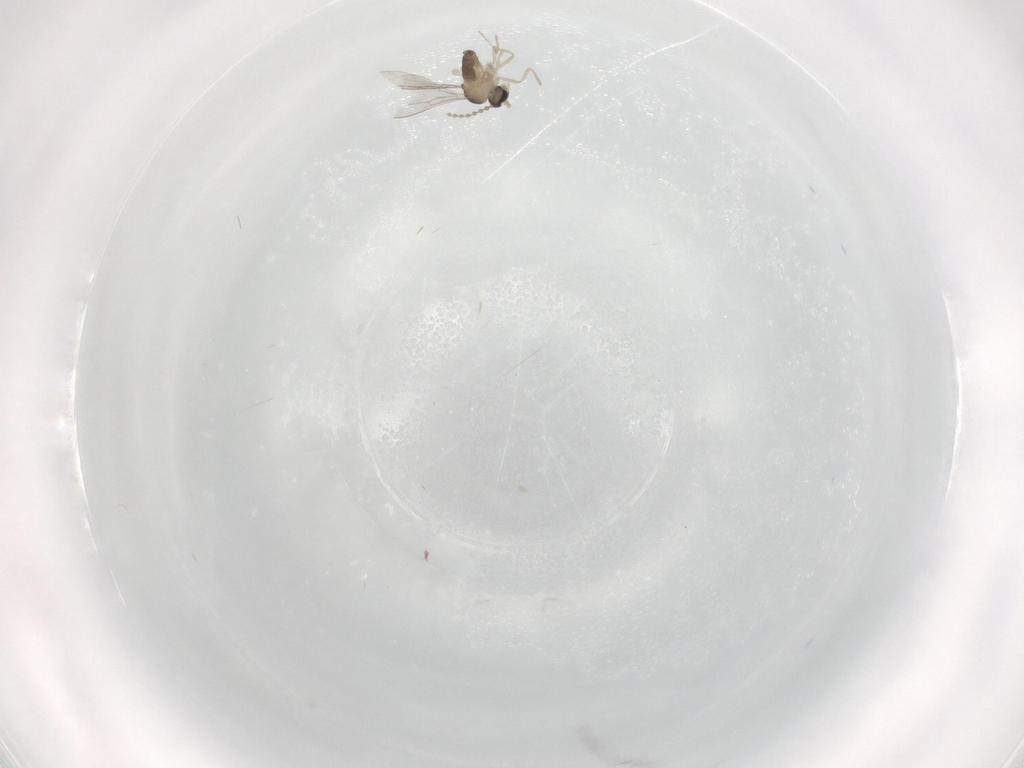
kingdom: Animalia
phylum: Arthropoda
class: Insecta
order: Diptera
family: Cecidomyiidae
